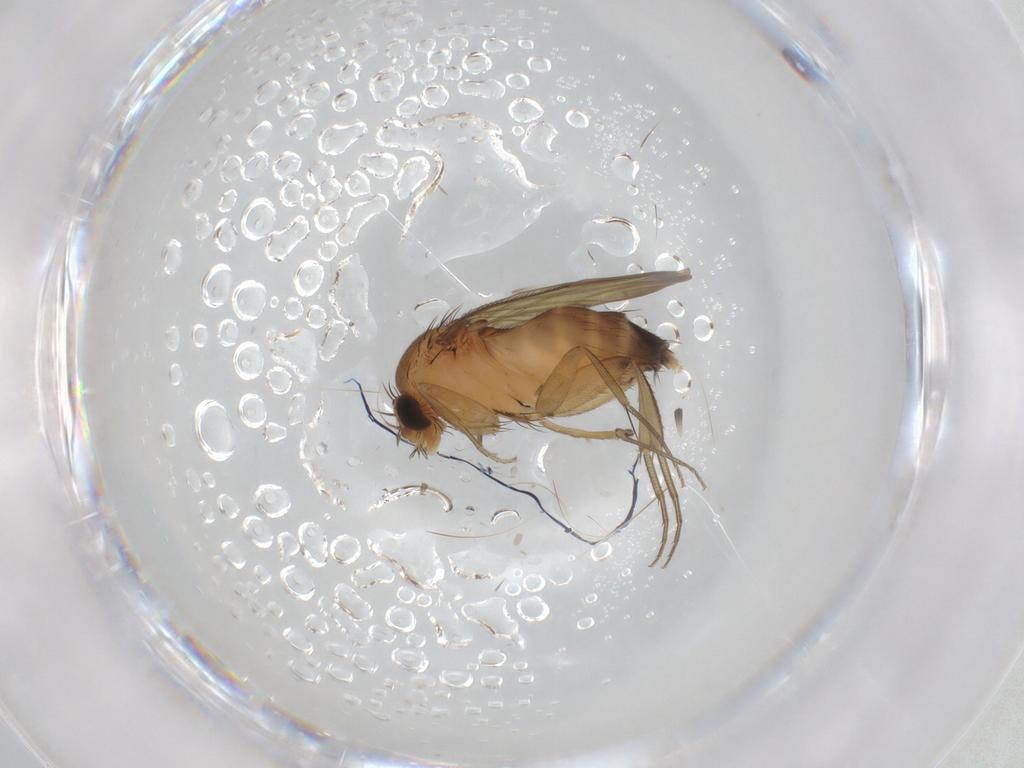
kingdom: Animalia
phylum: Arthropoda
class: Insecta
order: Diptera
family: Phoridae
